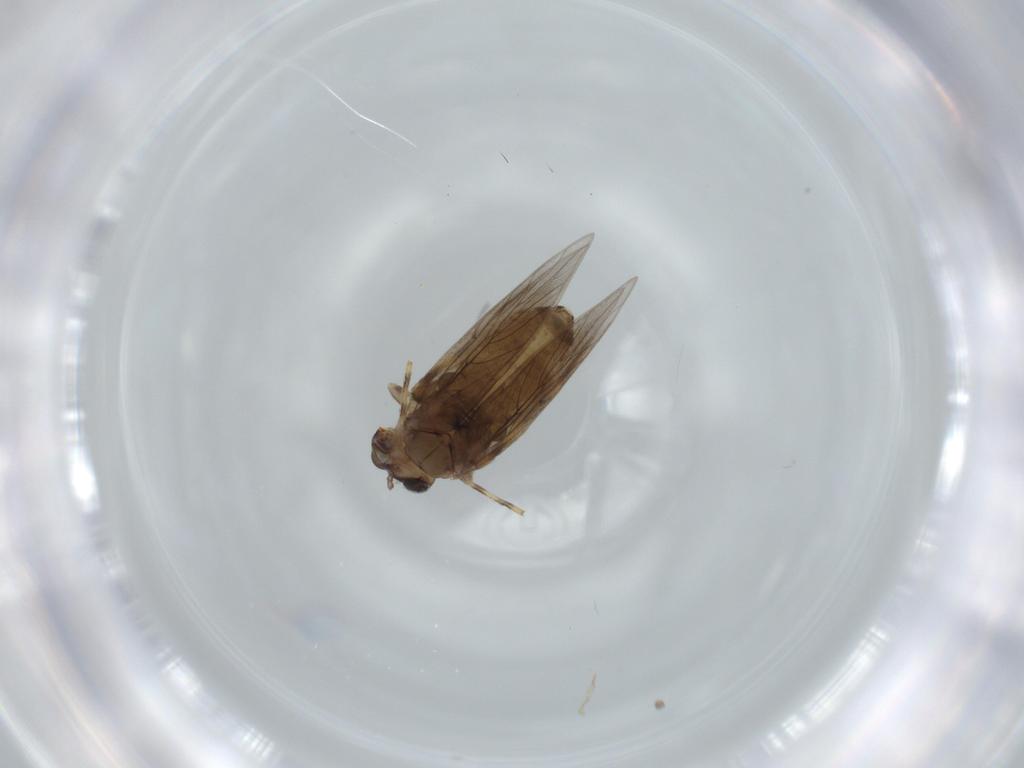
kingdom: Animalia
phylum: Arthropoda
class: Insecta
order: Psocodea
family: Lepidopsocidae
